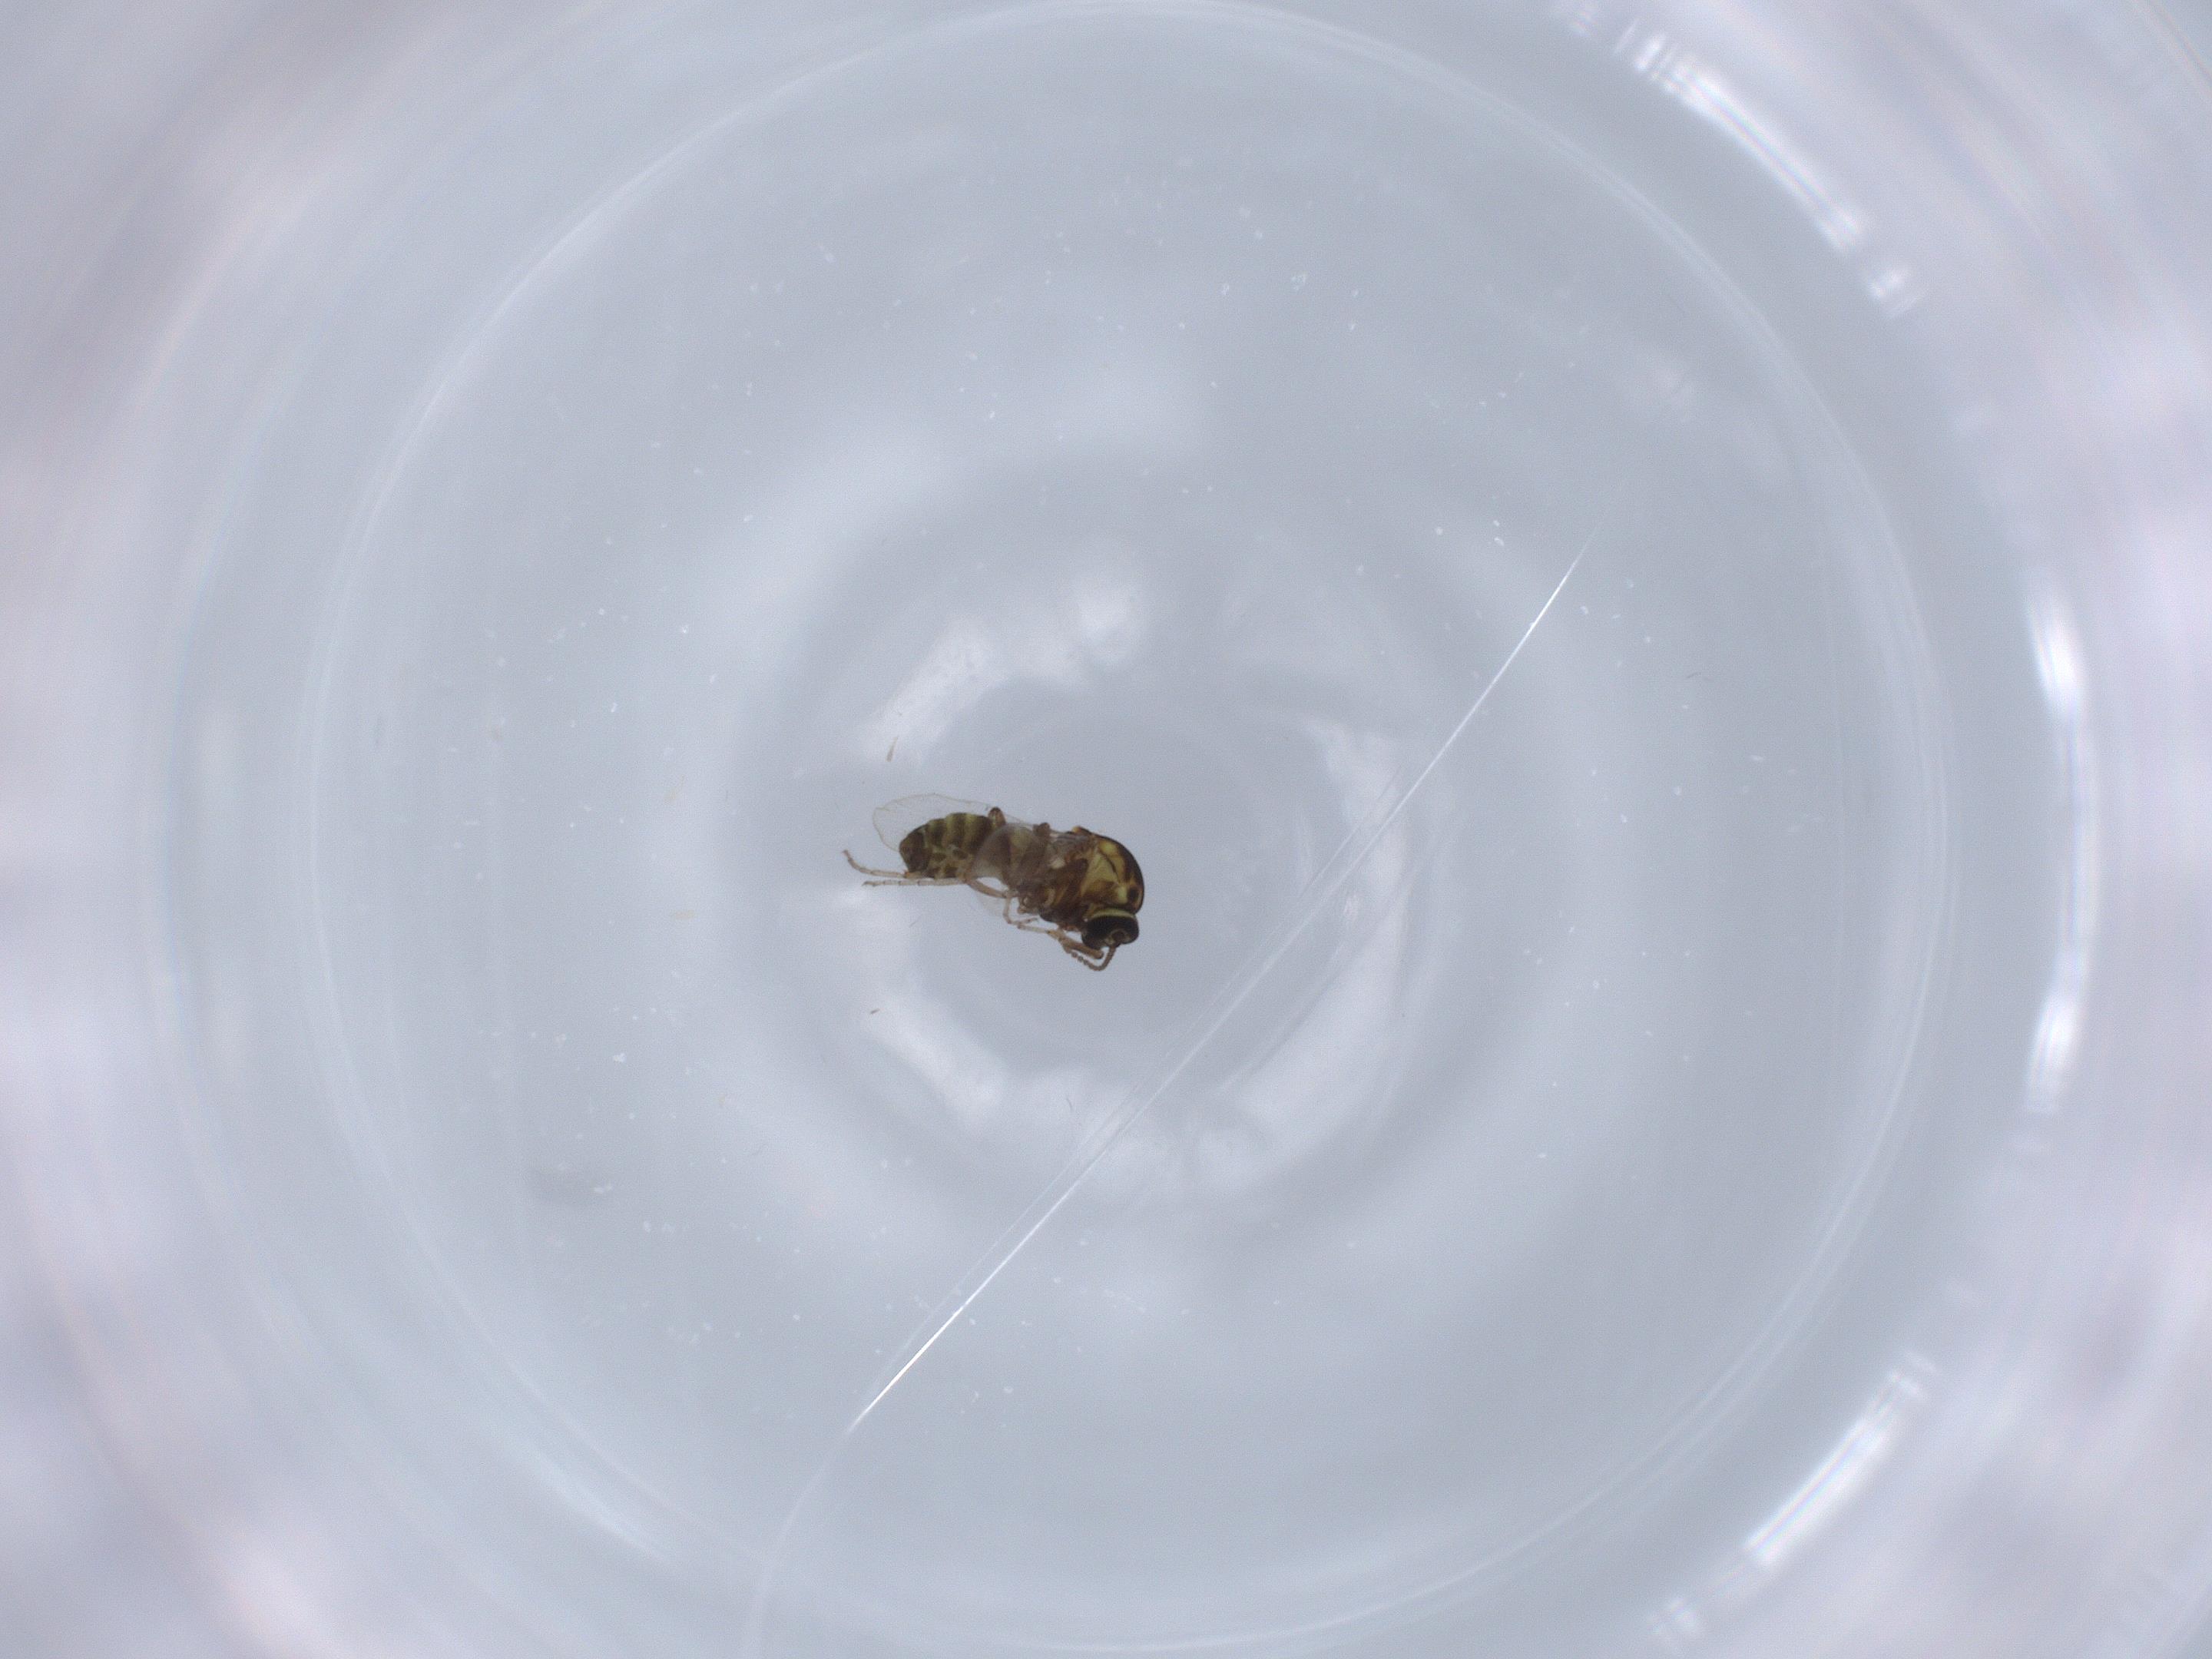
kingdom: Animalia
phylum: Arthropoda
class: Insecta
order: Diptera
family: Ceratopogonidae
